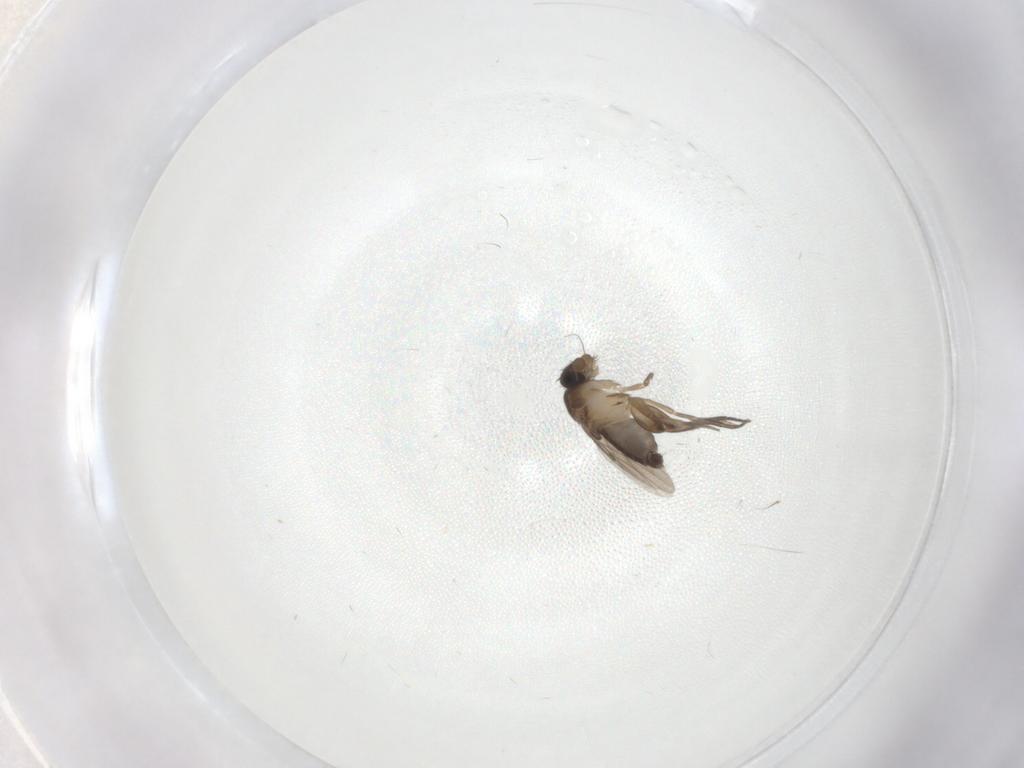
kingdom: Animalia
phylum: Arthropoda
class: Insecta
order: Diptera
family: Phoridae
